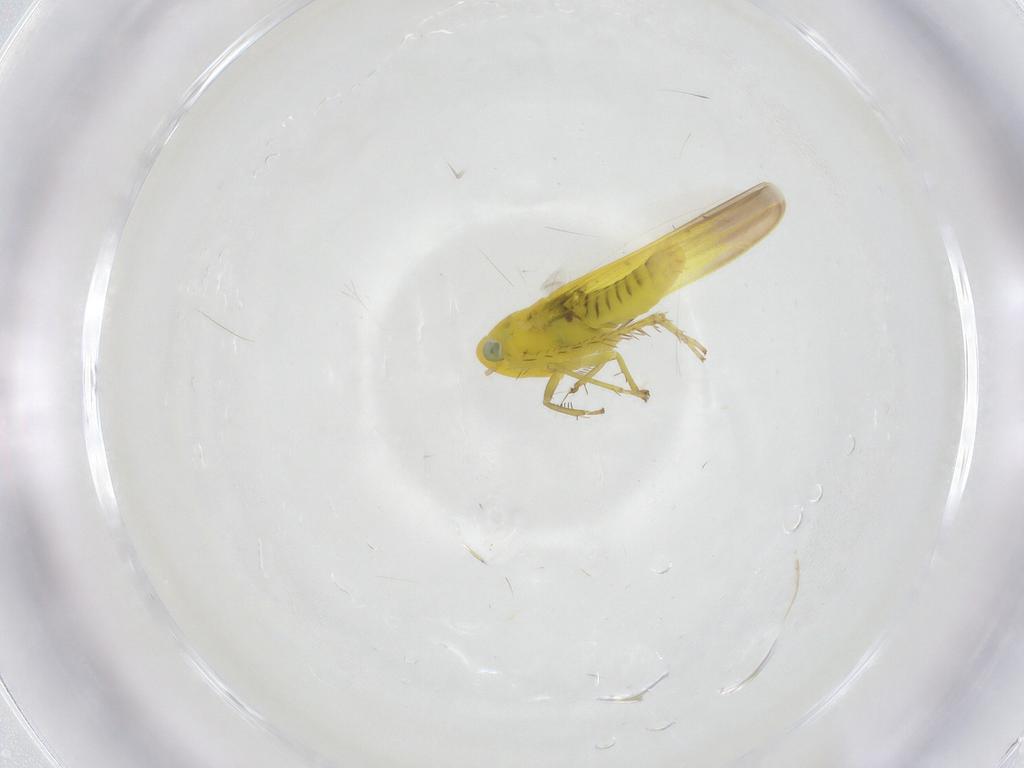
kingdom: Animalia
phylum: Arthropoda
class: Insecta
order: Hemiptera
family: Cicadellidae
